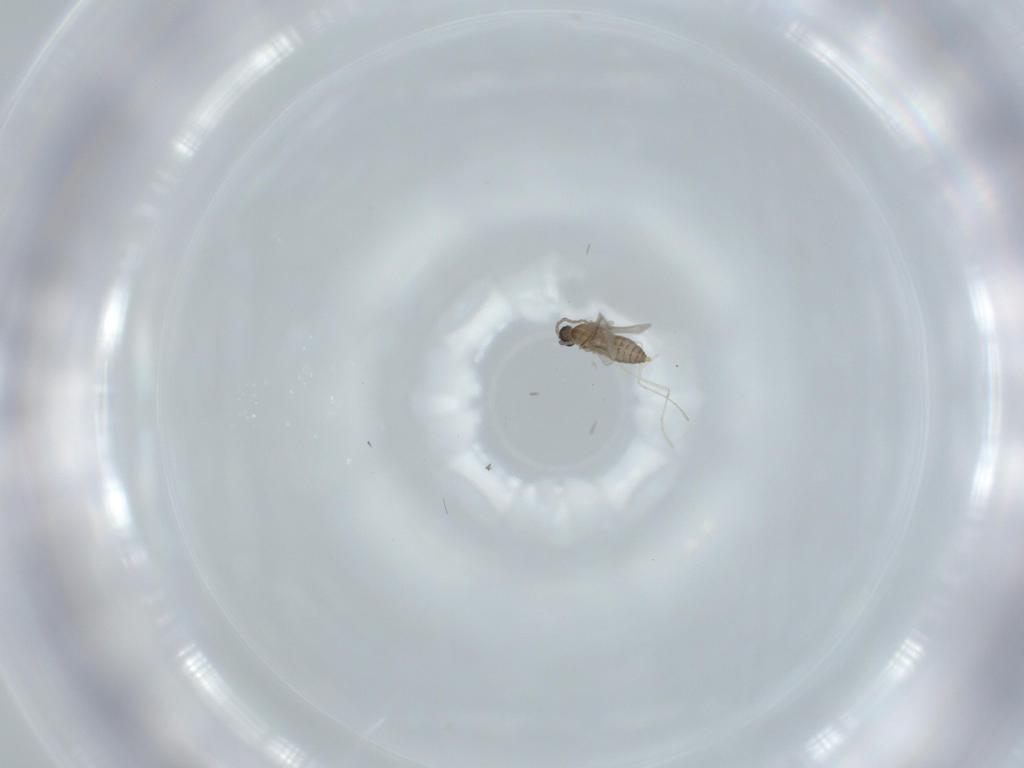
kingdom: Animalia
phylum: Arthropoda
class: Insecta
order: Diptera
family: Cecidomyiidae
